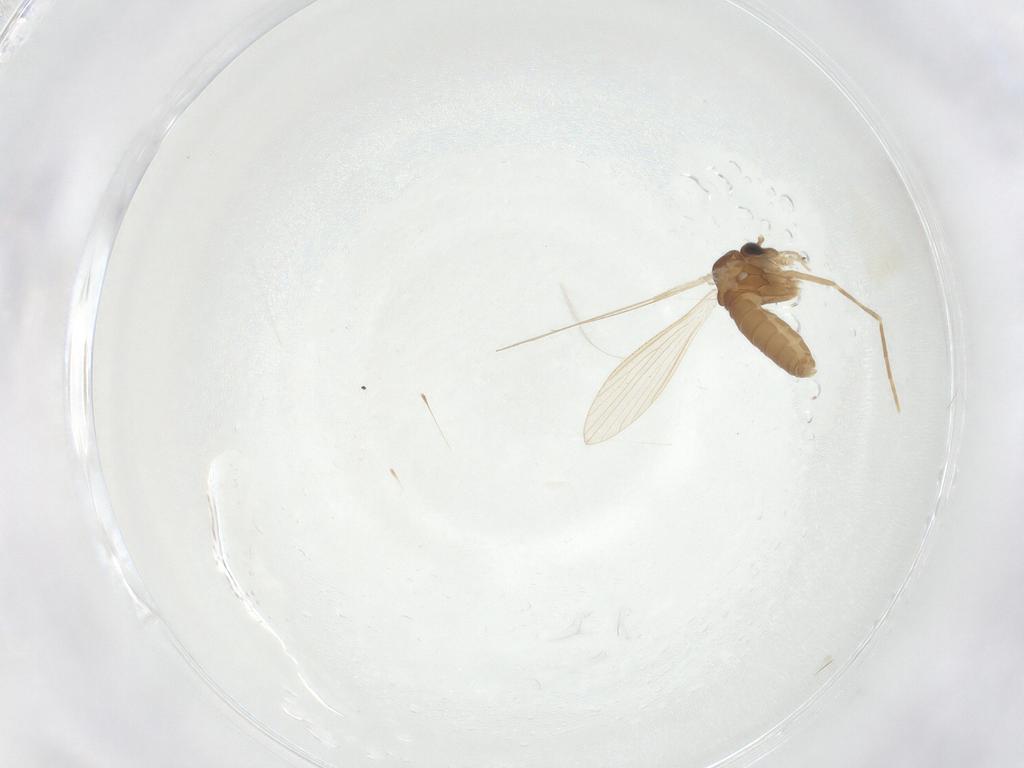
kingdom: Animalia
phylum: Arthropoda
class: Insecta
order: Diptera
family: Psychodidae
